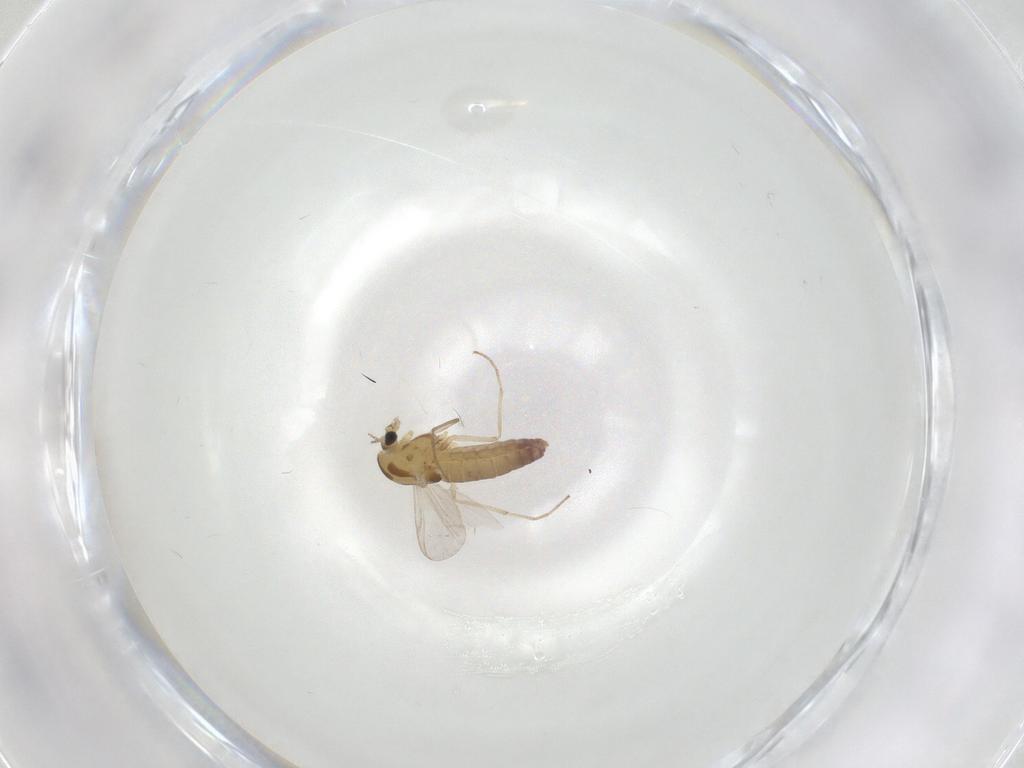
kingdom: Animalia
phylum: Arthropoda
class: Insecta
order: Diptera
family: Chironomidae
